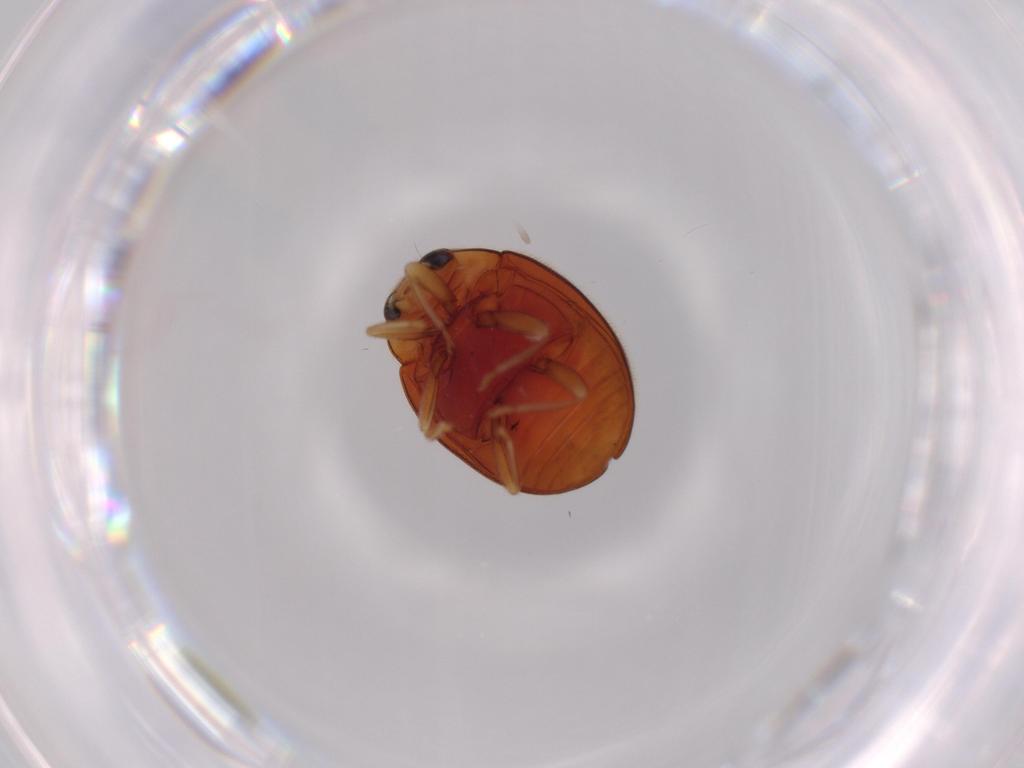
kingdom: Animalia
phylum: Arthropoda
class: Insecta
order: Coleoptera
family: Coccinellidae
